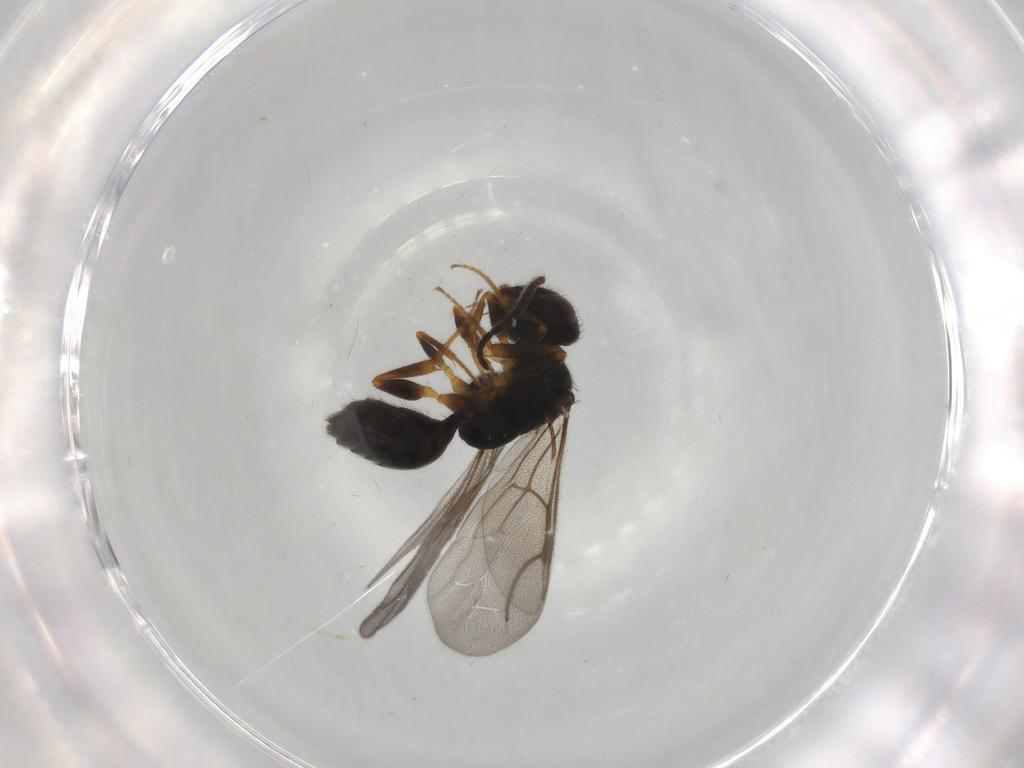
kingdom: Animalia
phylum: Arthropoda
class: Insecta
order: Hymenoptera
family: Bethylidae
